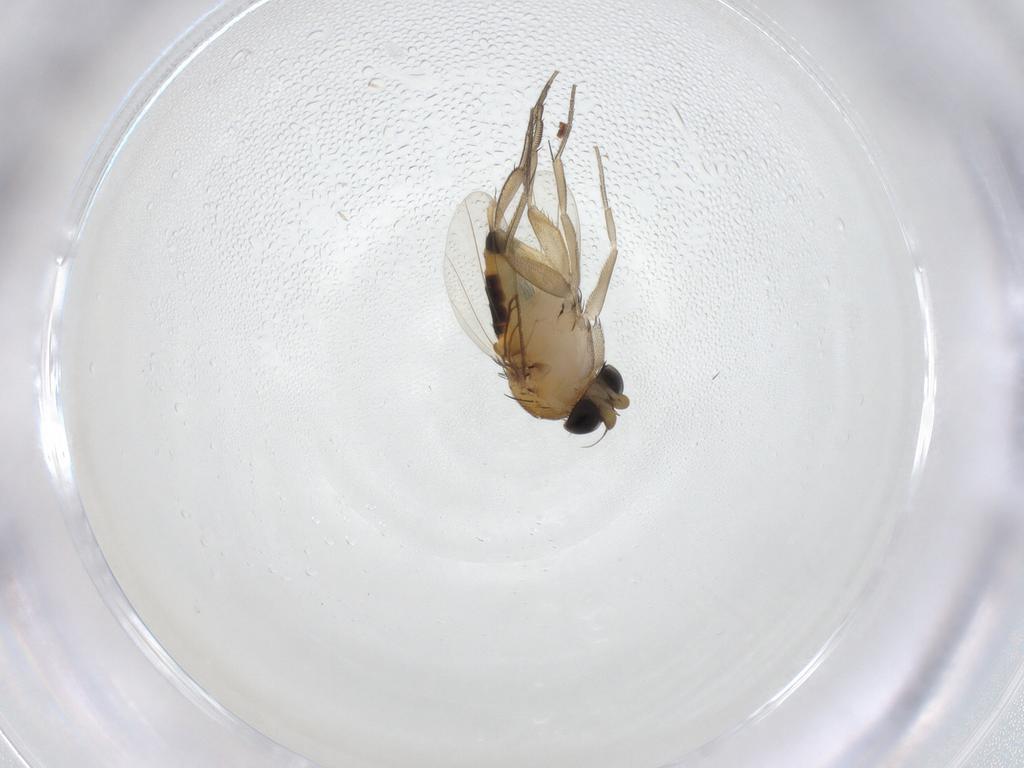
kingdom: Animalia
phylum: Arthropoda
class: Insecta
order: Diptera
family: Phoridae
